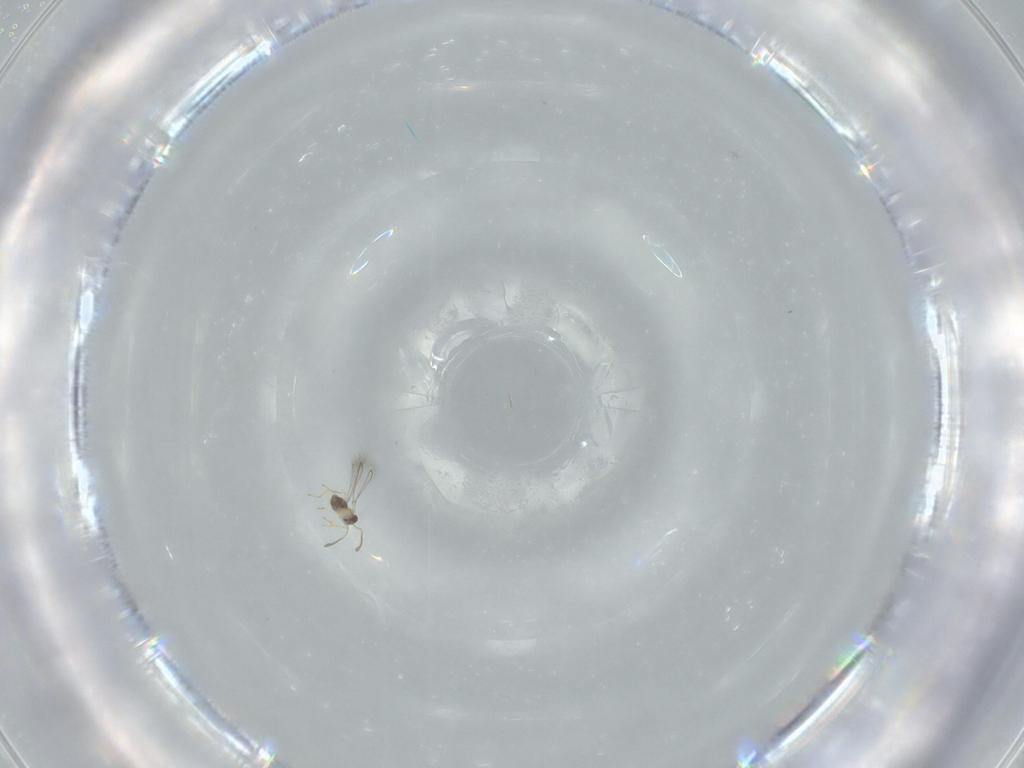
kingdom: Animalia
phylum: Arthropoda
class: Insecta
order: Hymenoptera
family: Mymaridae
